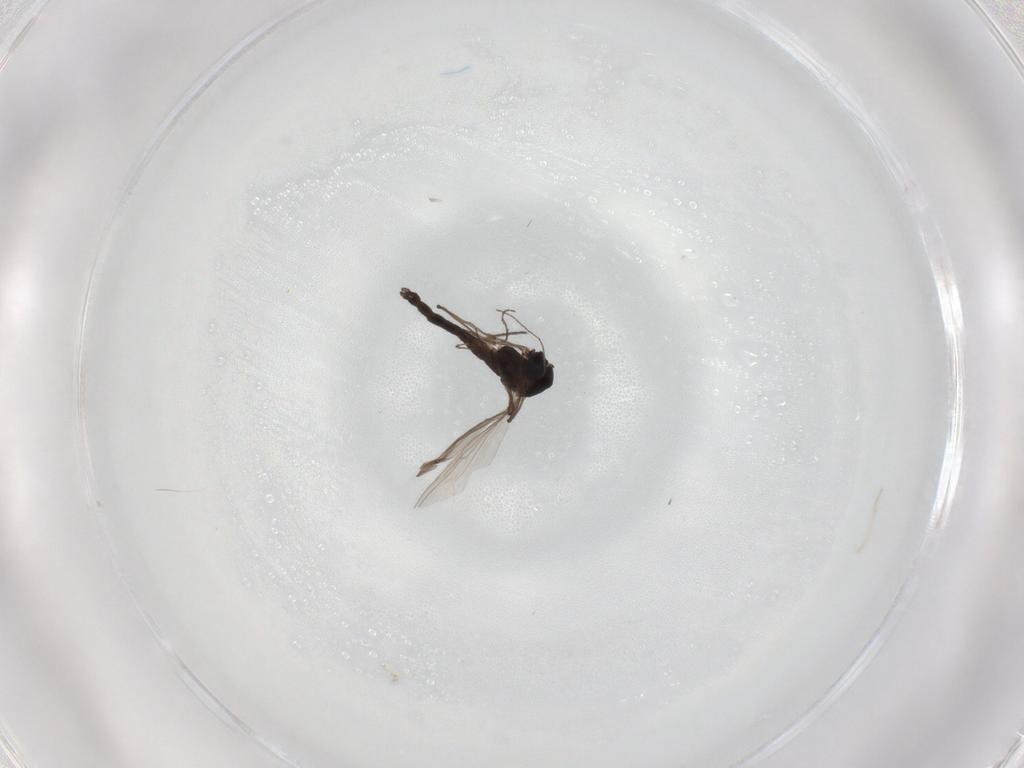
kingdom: Animalia
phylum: Arthropoda
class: Insecta
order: Diptera
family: Chironomidae
